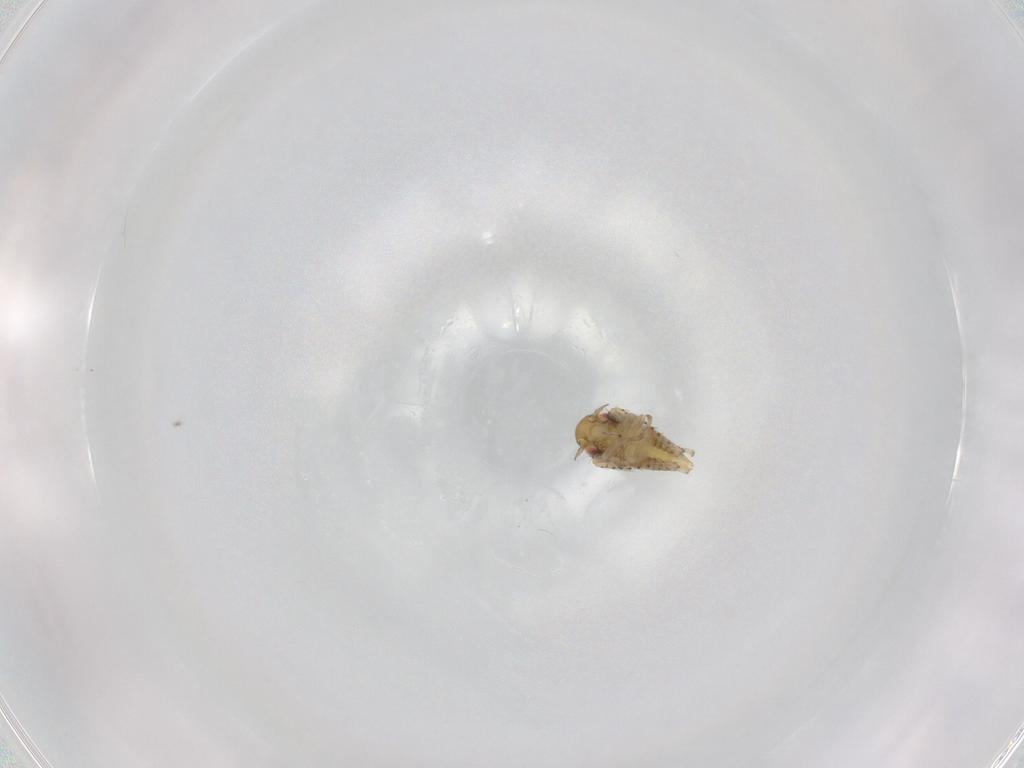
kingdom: Animalia
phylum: Arthropoda
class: Insecta
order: Hemiptera
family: Cicadellidae
